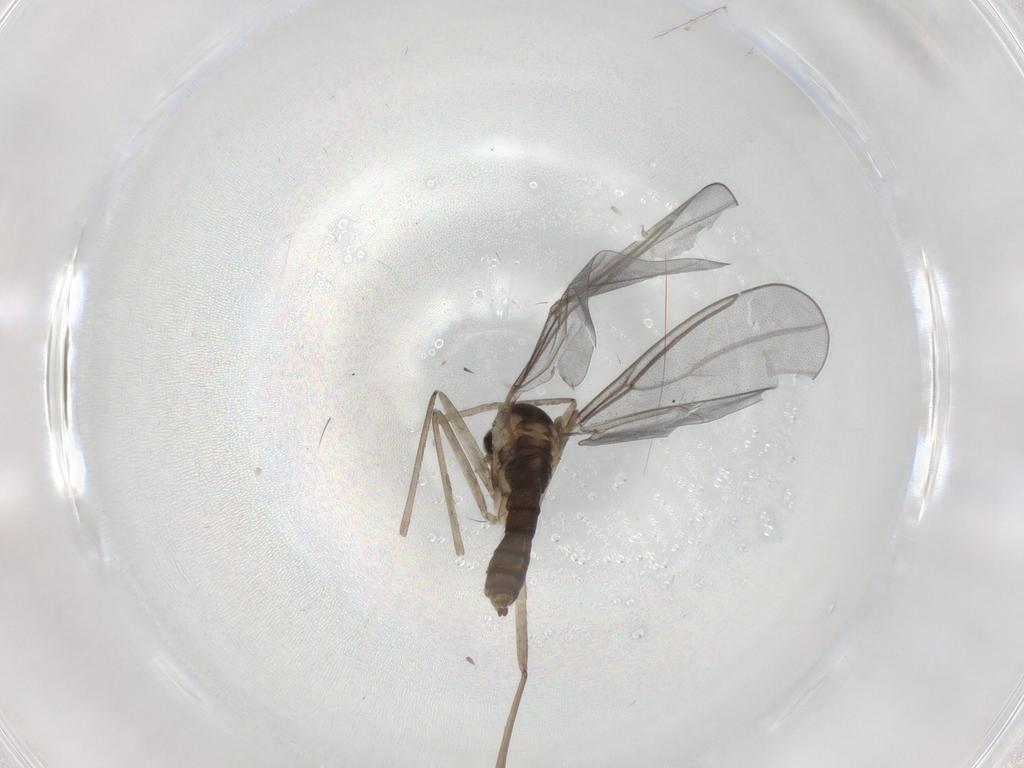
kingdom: Animalia
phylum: Arthropoda
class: Insecta
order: Diptera
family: Cecidomyiidae
